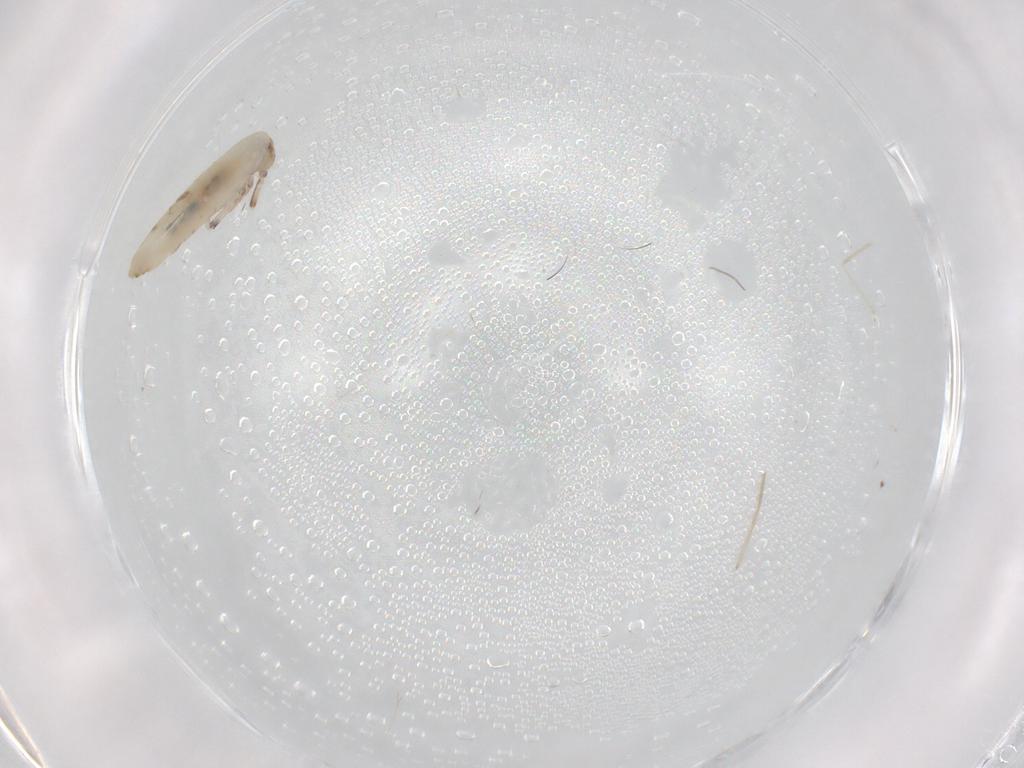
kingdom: Animalia
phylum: Arthropoda
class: Collembola
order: Entomobryomorpha
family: Entomobryidae
